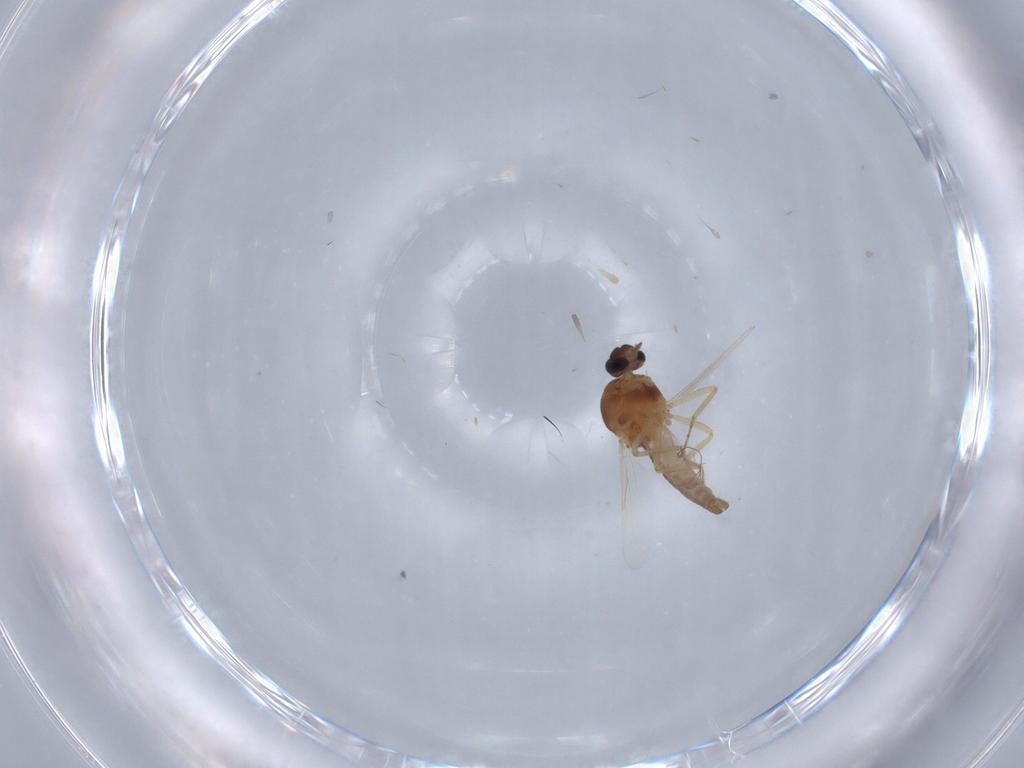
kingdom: Animalia
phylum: Arthropoda
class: Insecta
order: Diptera
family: Ceratopogonidae
